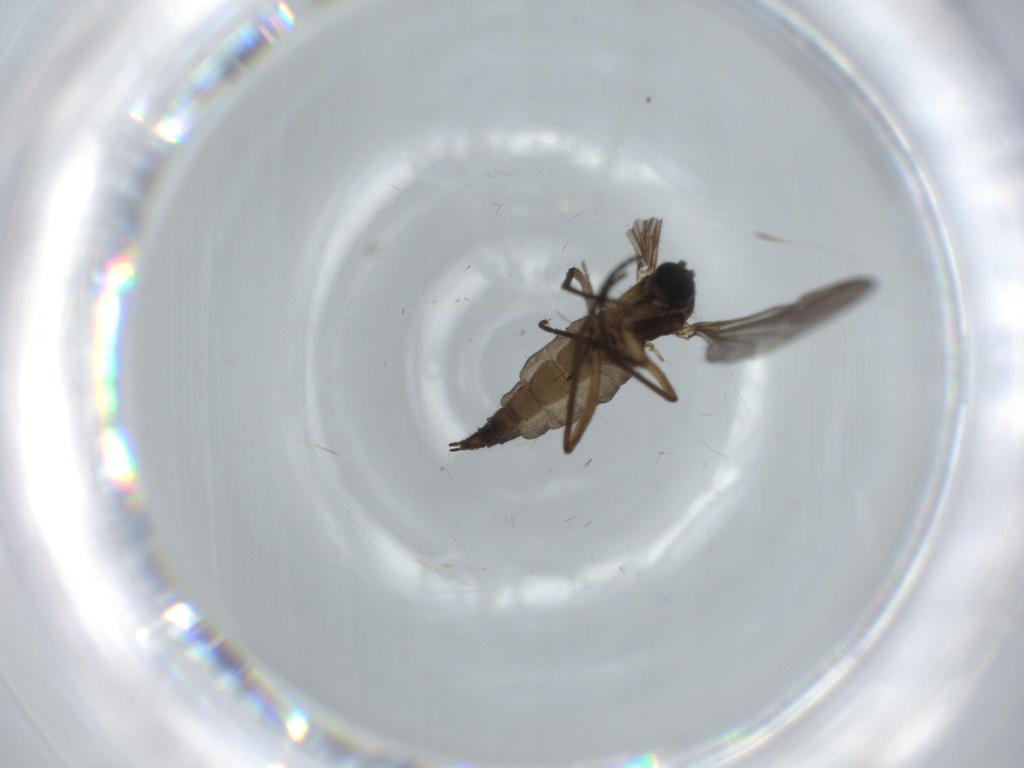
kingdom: Animalia
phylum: Arthropoda
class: Insecta
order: Diptera
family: Sciaridae
